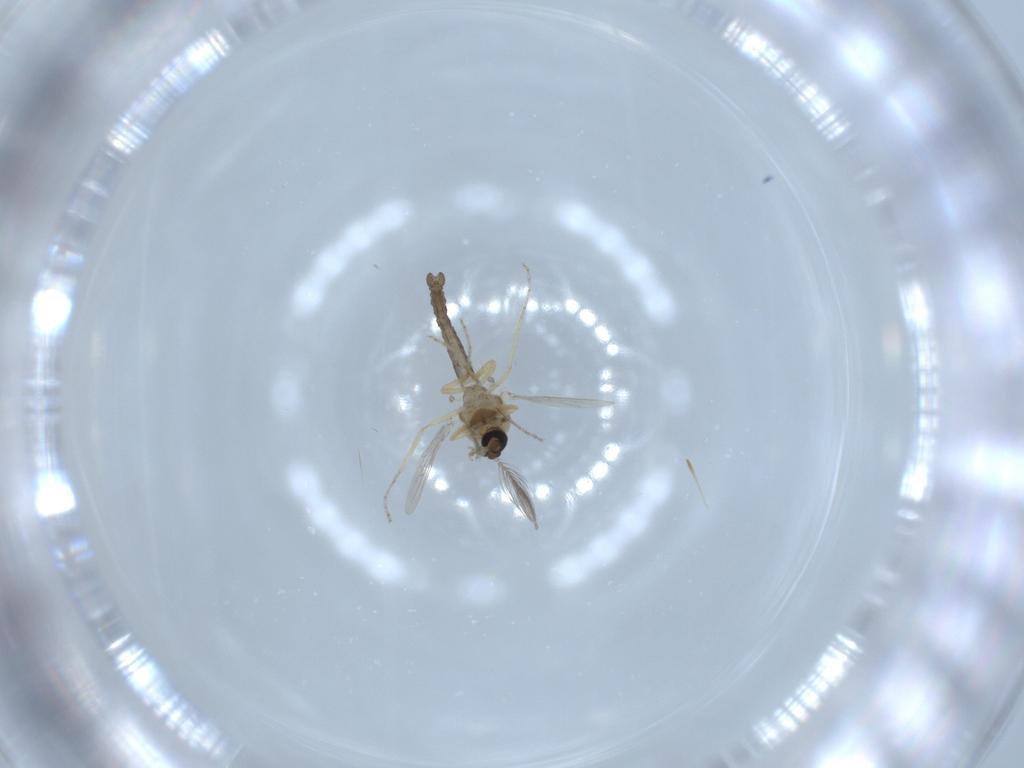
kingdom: Animalia
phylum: Arthropoda
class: Insecta
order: Diptera
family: Ceratopogonidae
